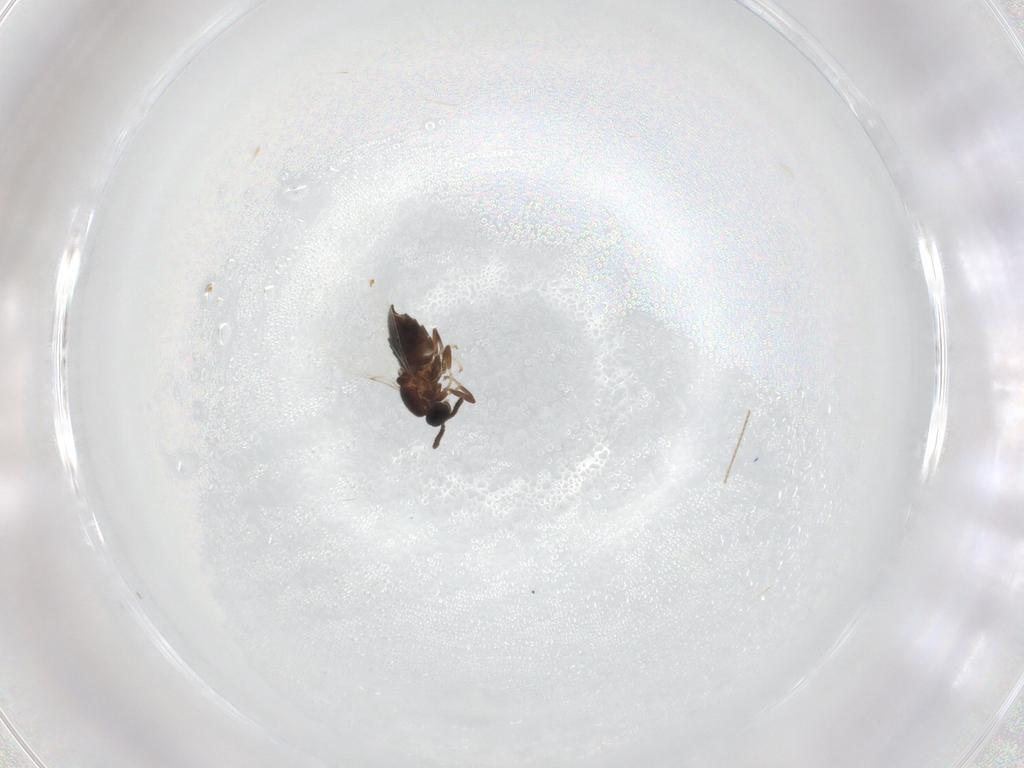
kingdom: Animalia
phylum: Arthropoda
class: Insecta
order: Diptera
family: Scatopsidae
